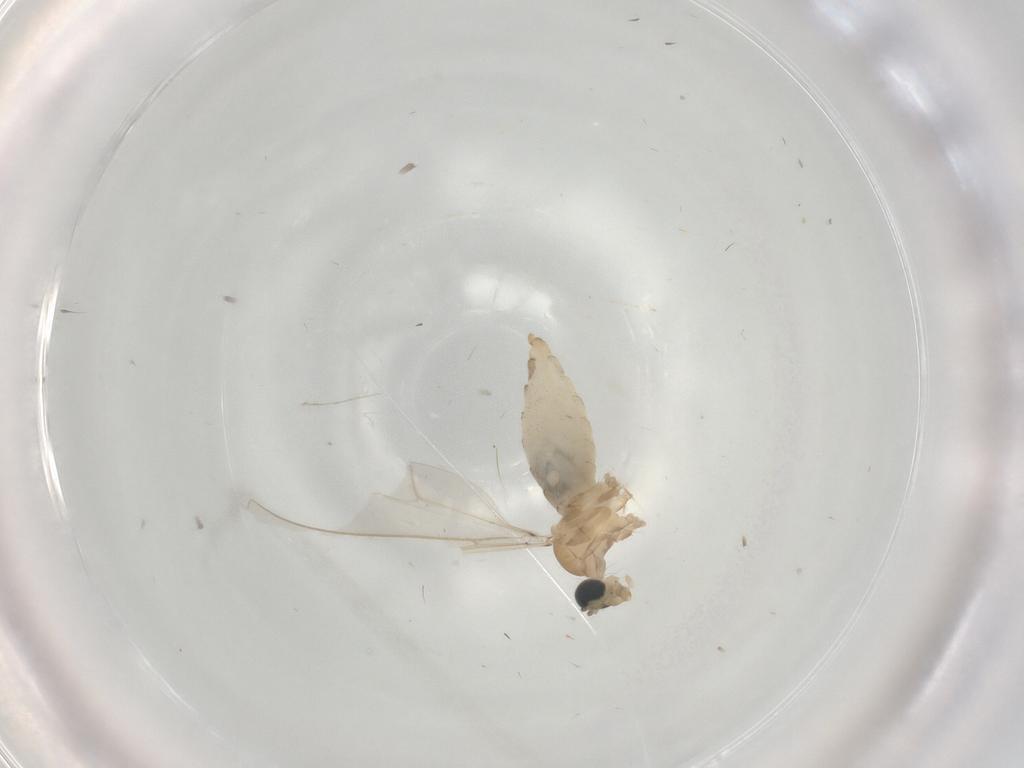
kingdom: Animalia
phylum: Arthropoda
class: Insecta
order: Diptera
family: Cecidomyiidae
